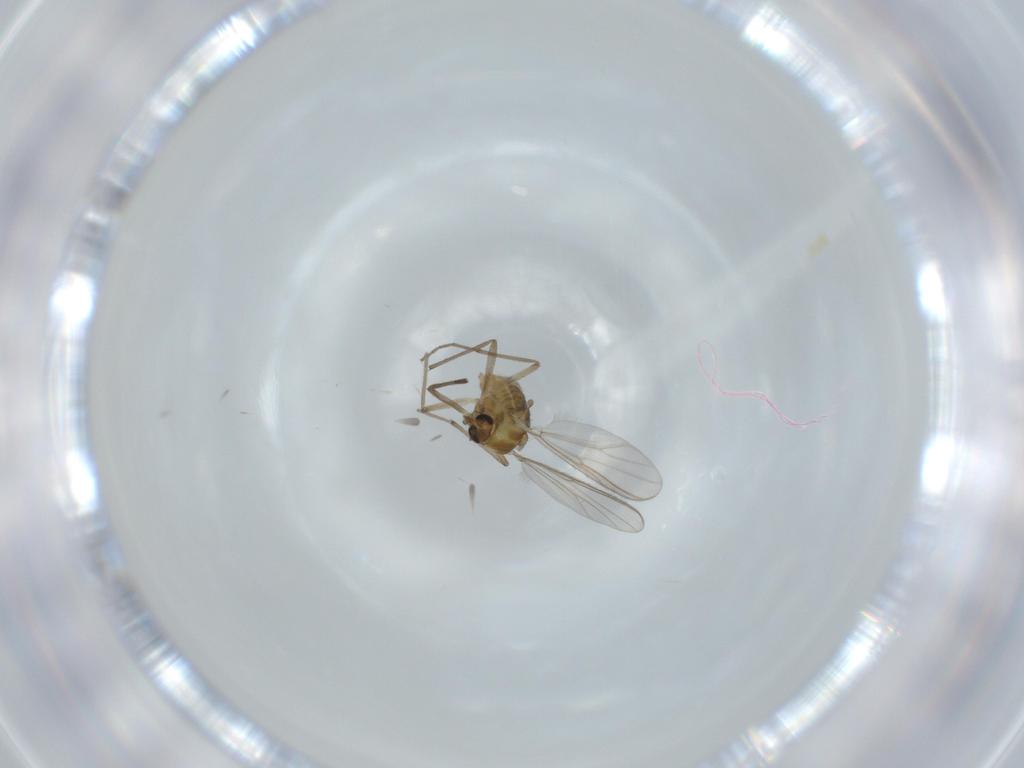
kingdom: Animalia
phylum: Arthropoda
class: Insecta
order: Diptera
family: Chironomidae
